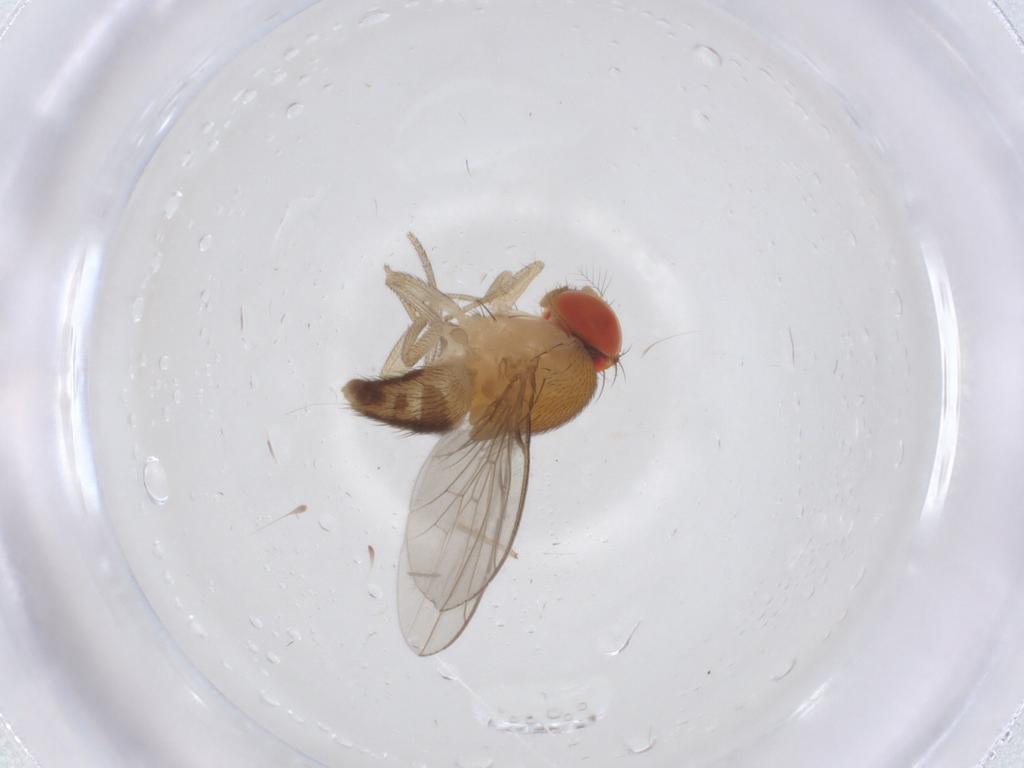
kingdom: Animalia
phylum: Arthropoda
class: Insecta
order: Diptera
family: Drosophilidae
